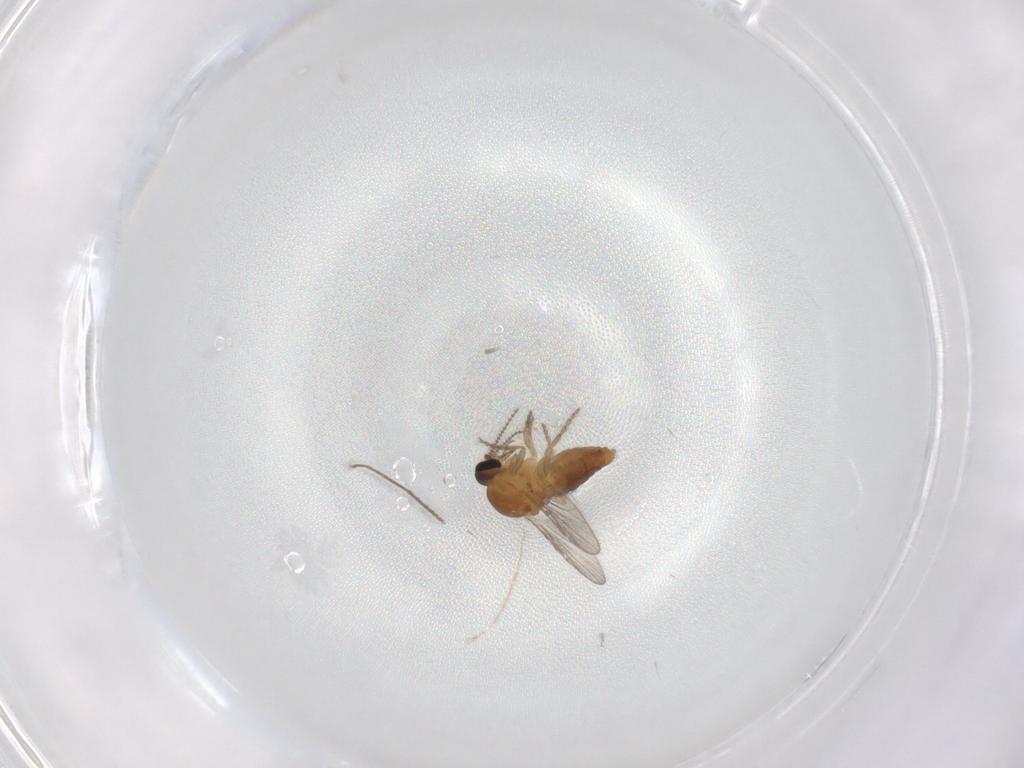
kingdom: Animalia
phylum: Arthropoda
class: Insecta
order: Diptera
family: Ceratopogonidae
